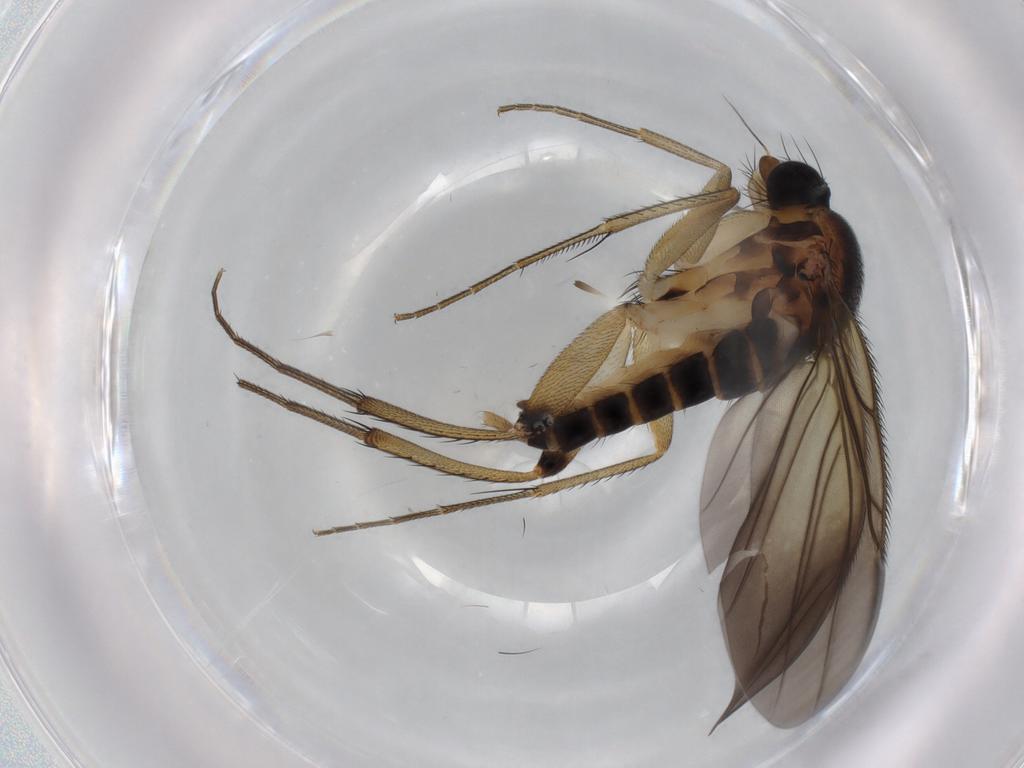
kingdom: Animalia
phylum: Arthropoda
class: Insecta
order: Diptera
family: Phoridae
